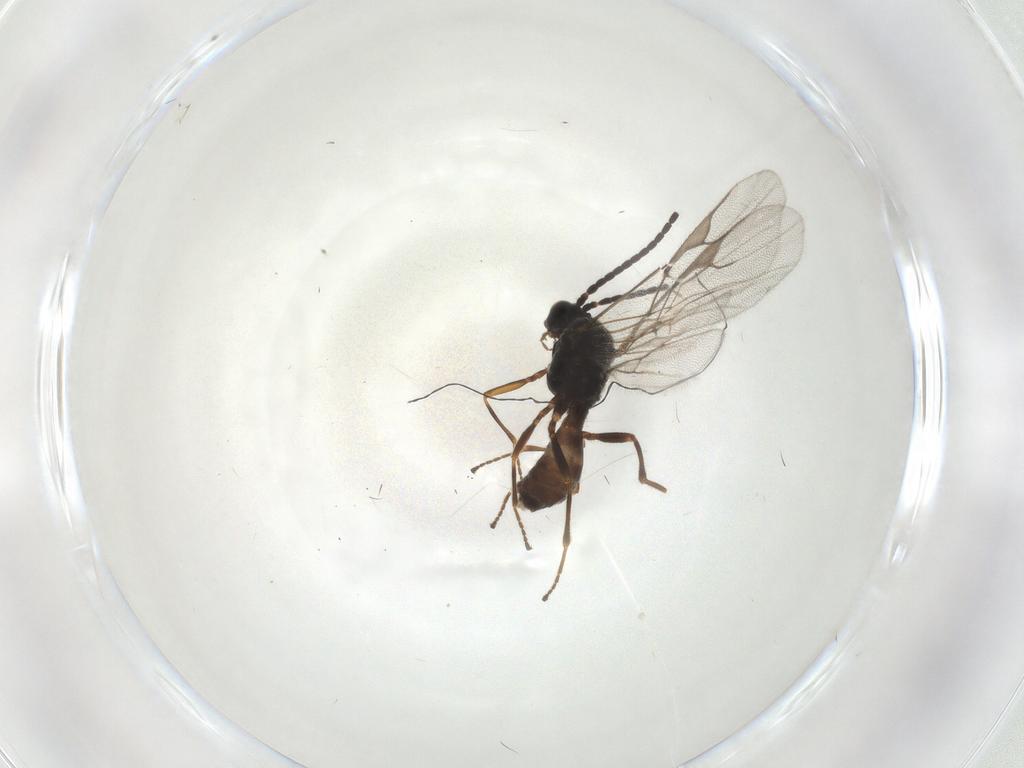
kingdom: Animalia
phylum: Arthropoda
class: Insecta
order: Hymenoptera
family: Braconidae
